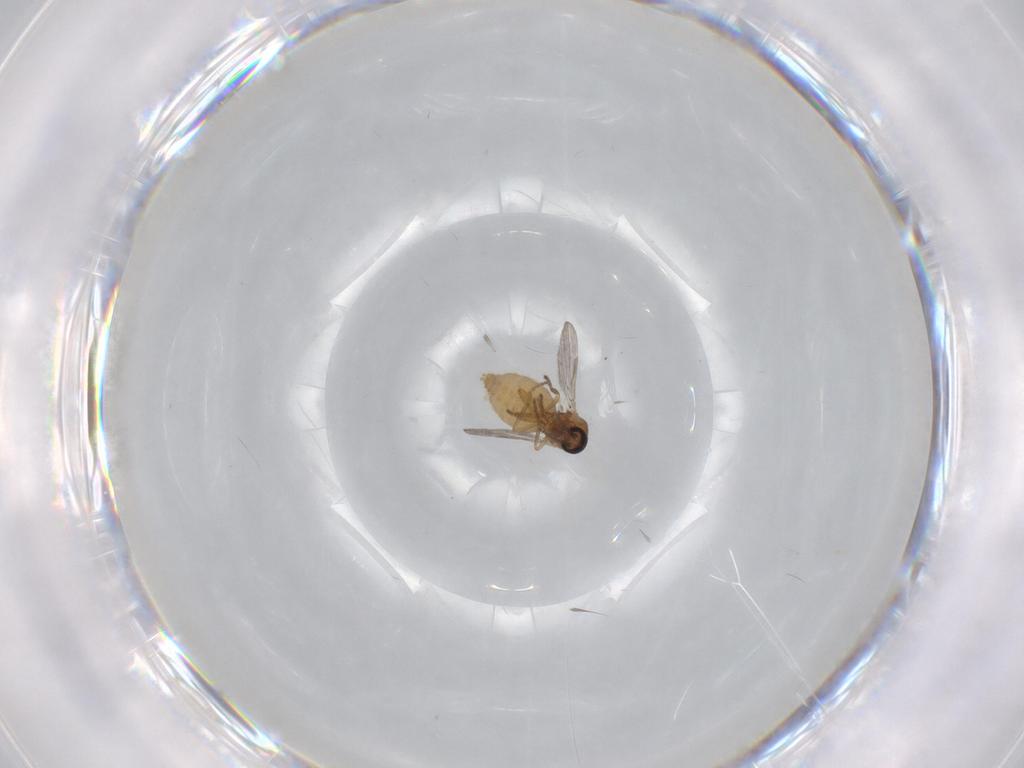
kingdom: Animalia
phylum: Arthropoda
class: Insecta
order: Diptera
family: Ceratopogonidae
